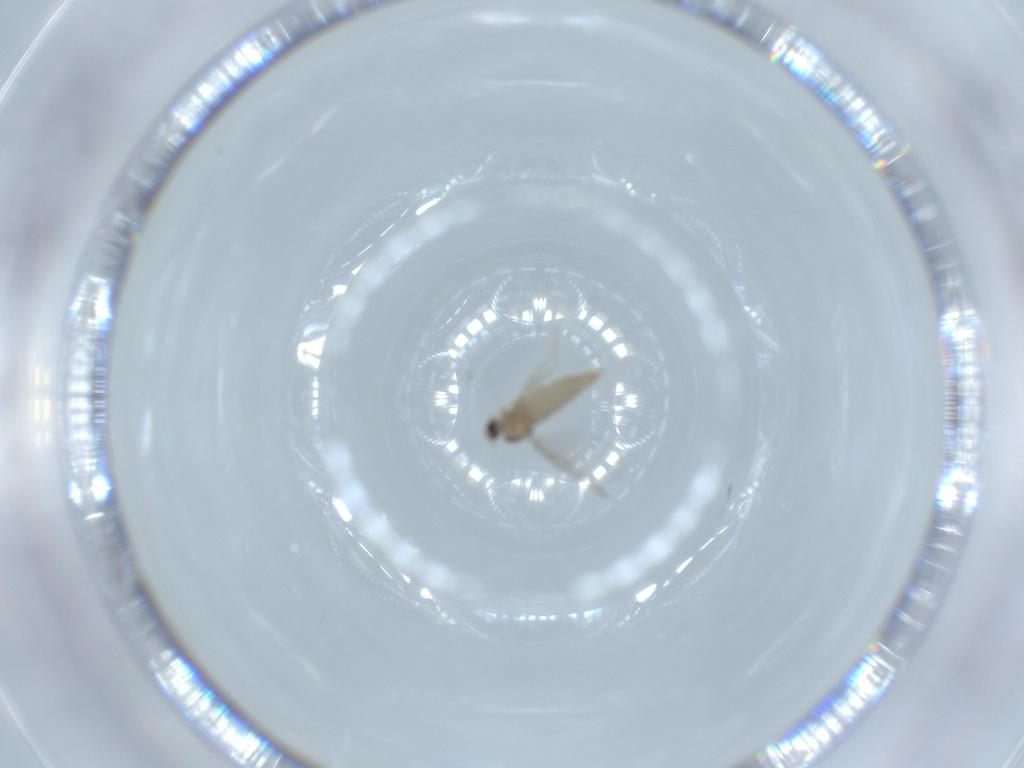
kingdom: Animalia
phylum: Arthropoda
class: Insecta
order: Diptera
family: Cecidomyiidae
